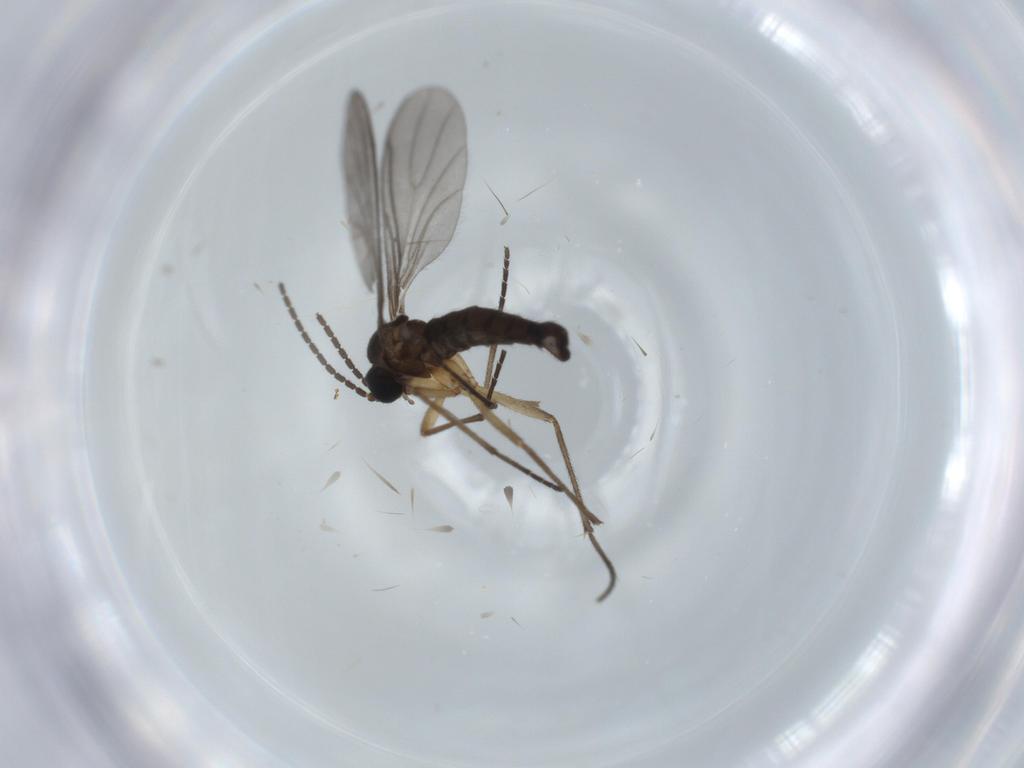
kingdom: Animalia
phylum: Arthropoda
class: Insecta
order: Diptera
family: Sciaridae
